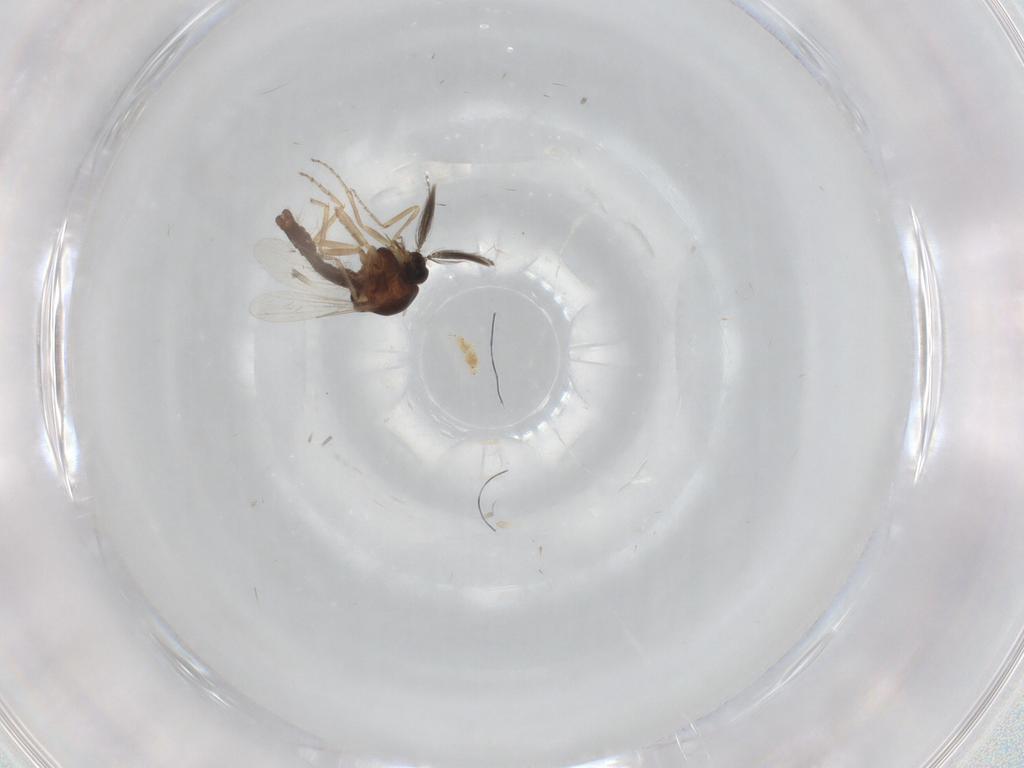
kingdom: Animalia
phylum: Arthropoda
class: Insecta
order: Diptera
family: Ceratopogonidae
